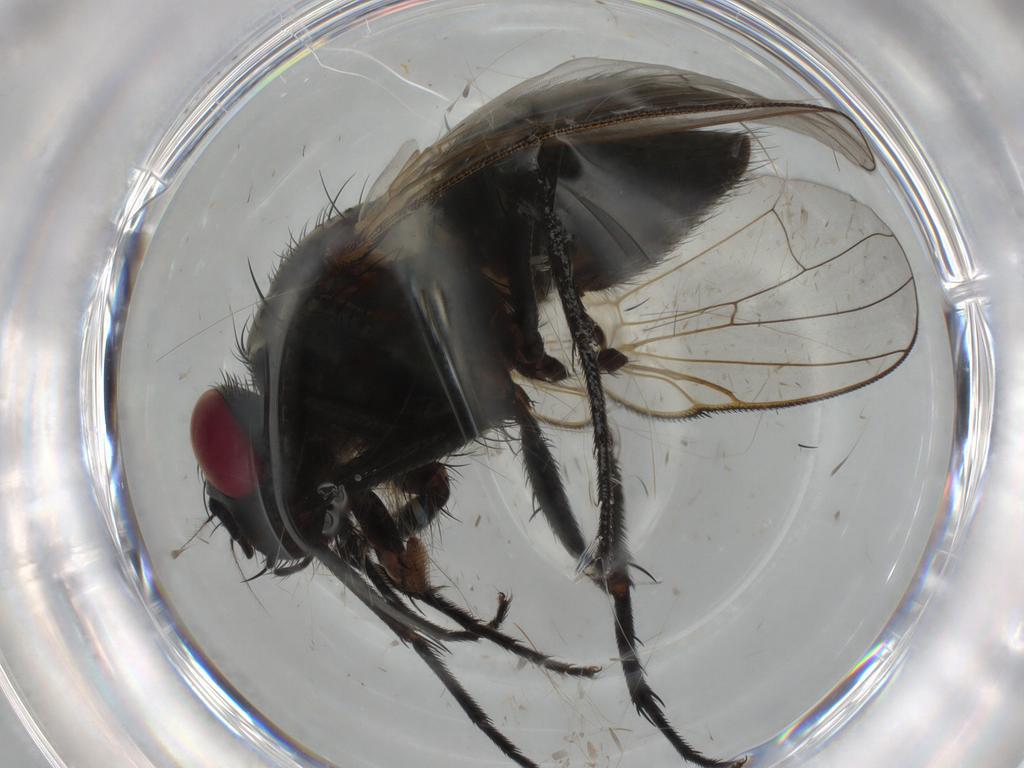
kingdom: Animalia
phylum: Arthropoda
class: Insecta
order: Diptera
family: Muscidae
